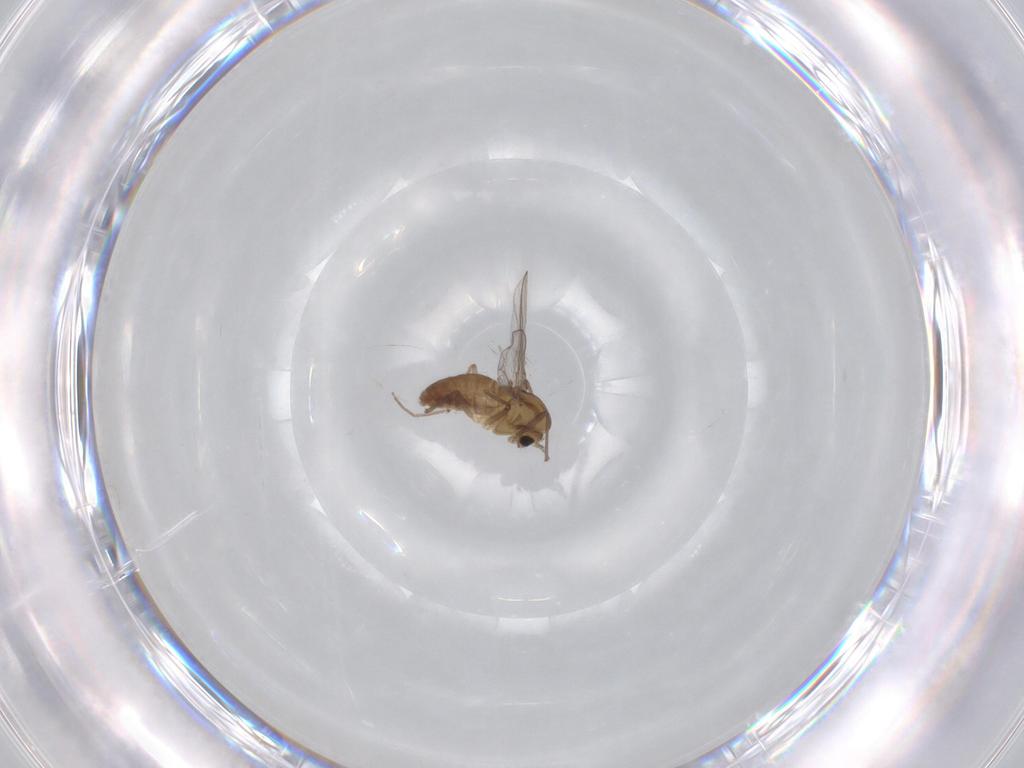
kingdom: Animalia
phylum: Arthropoda
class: Insecta
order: Diptera
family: Chironomidae
